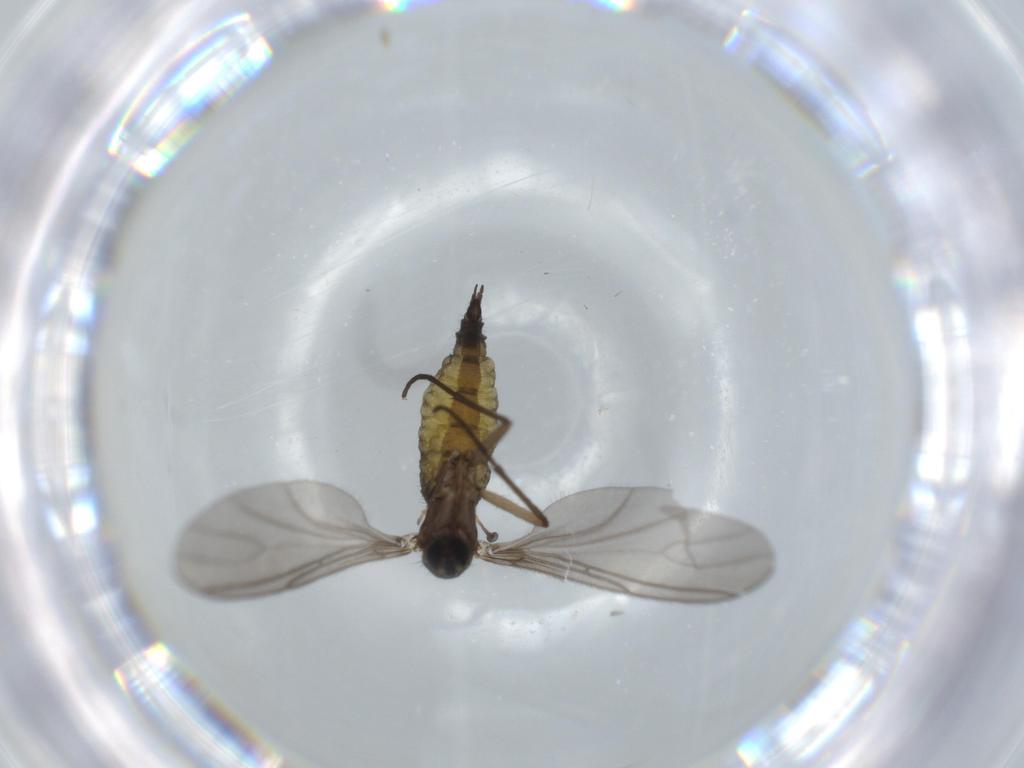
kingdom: Animalia
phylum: Arthropoda
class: Insecta
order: Diptera
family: Sciaridae
